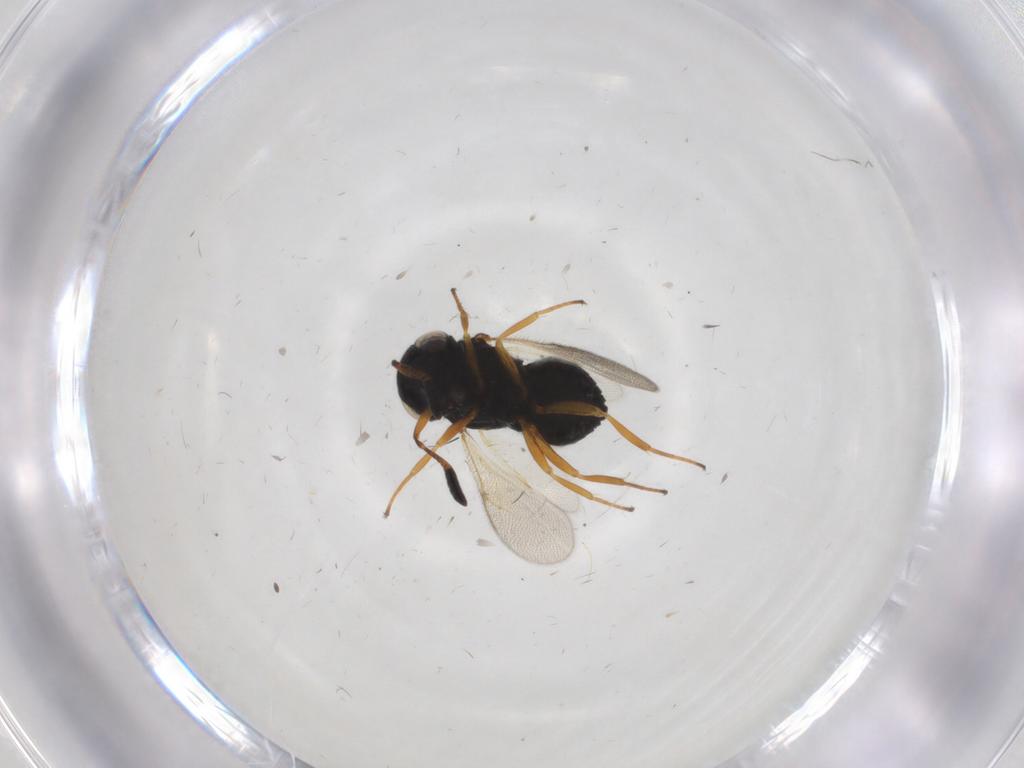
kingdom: Animalia
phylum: Arthropoda
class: Insecta
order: Hymenoptera
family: Scelionidae
